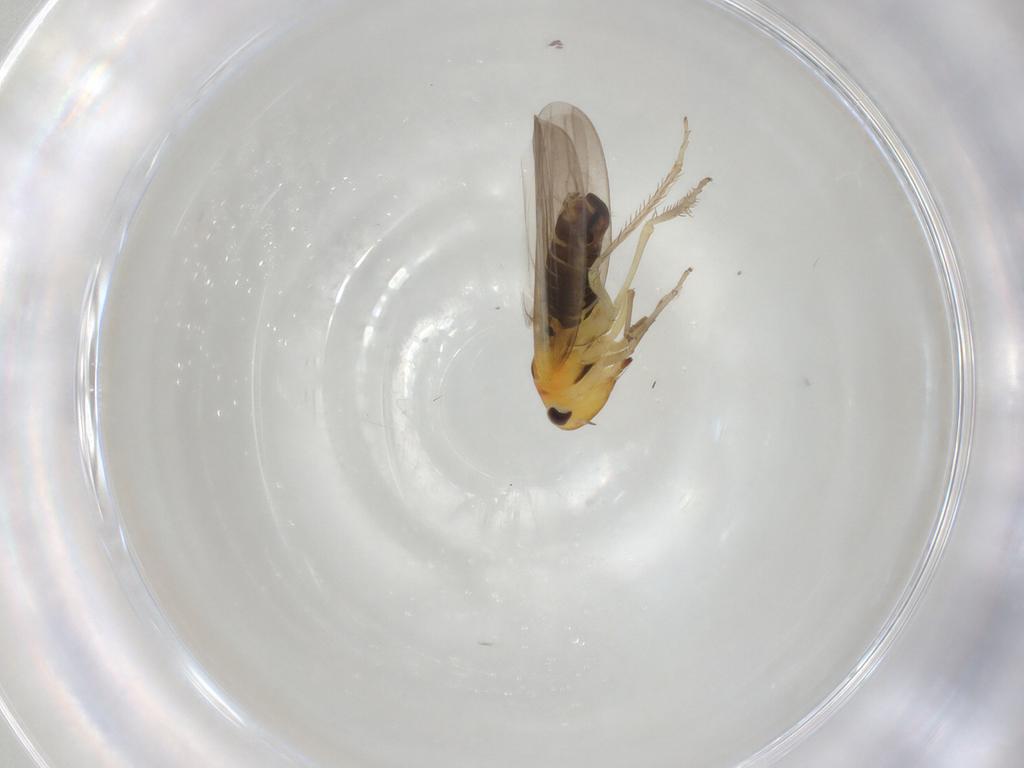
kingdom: Animalia
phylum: Arthropoda
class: Insecta
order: Hemiptera
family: Cicadellidae
